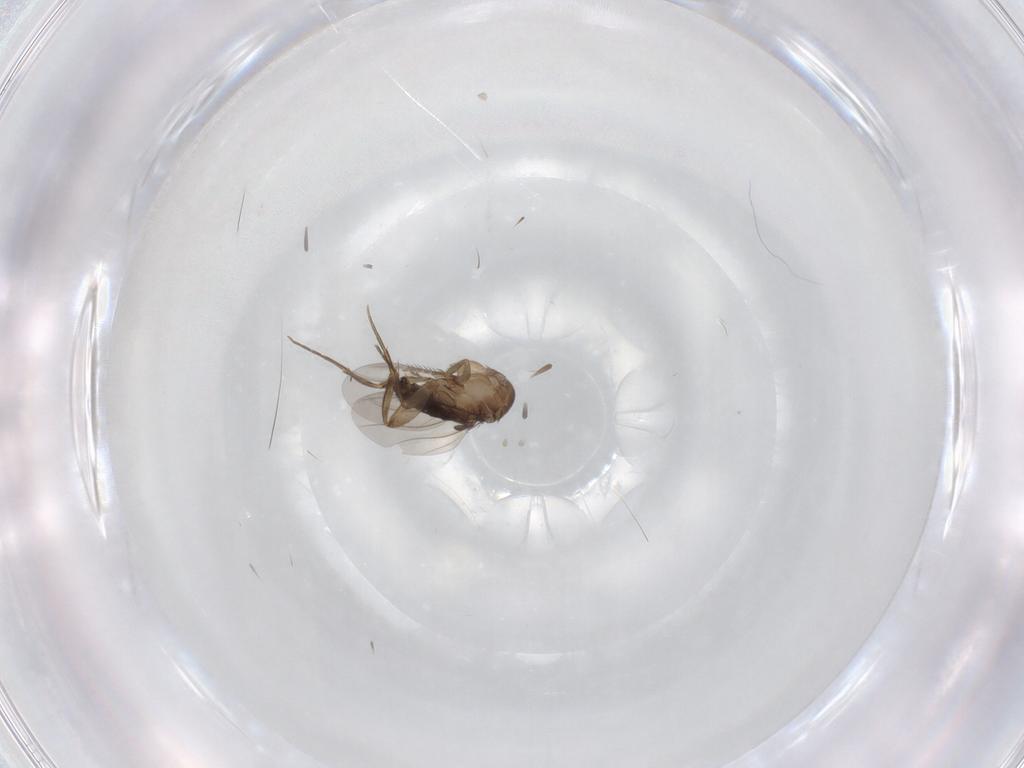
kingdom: Animalia
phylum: Arthropoda
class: Insecta
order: Diptera
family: Phoridae
